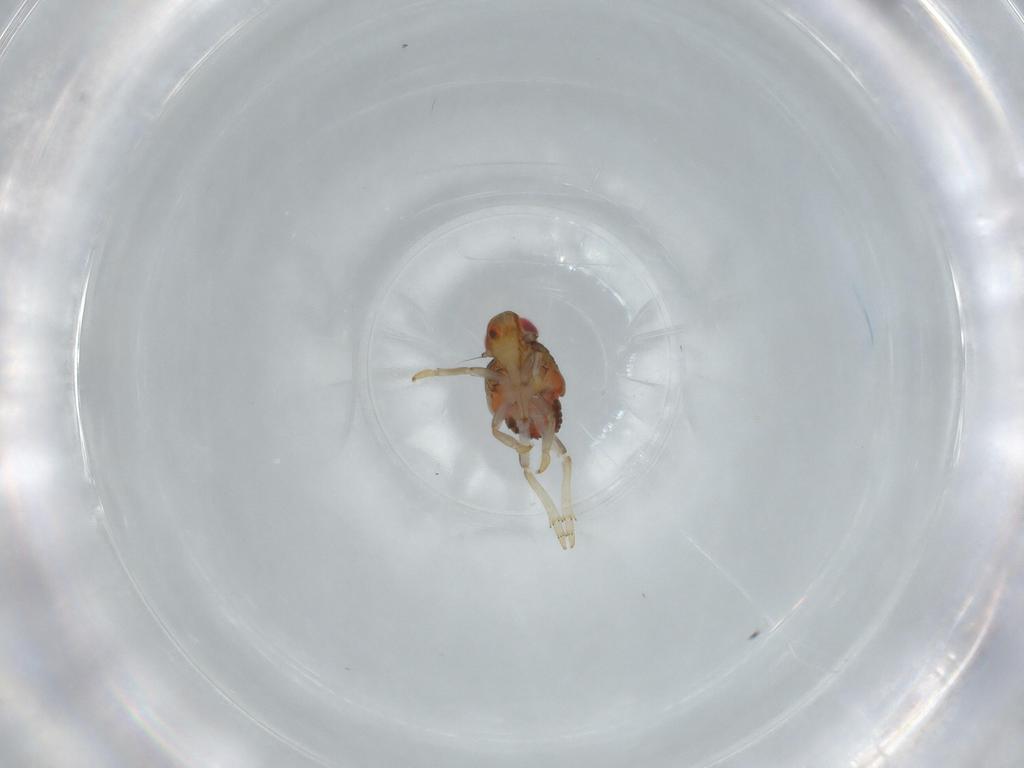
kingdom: Animalia
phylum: Arthropoda
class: Insecta
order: Hemiptera
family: Issidae
